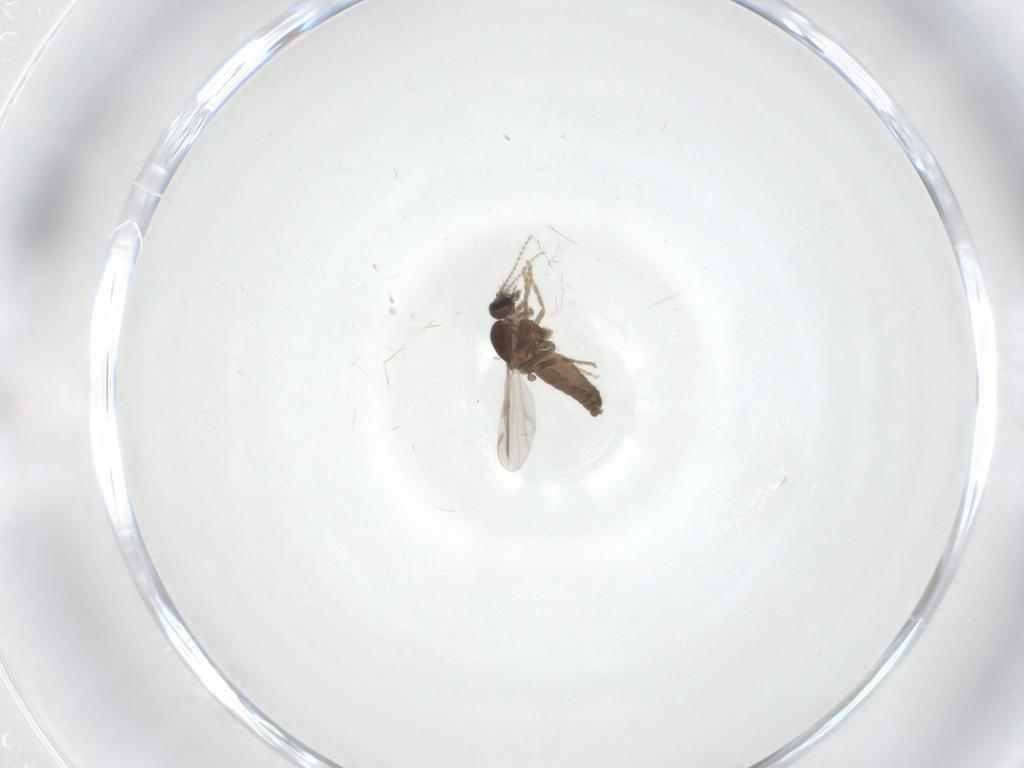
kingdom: Animalia
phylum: Arthropoda
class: Insecta
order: Diptera
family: Ceratopogonidae
